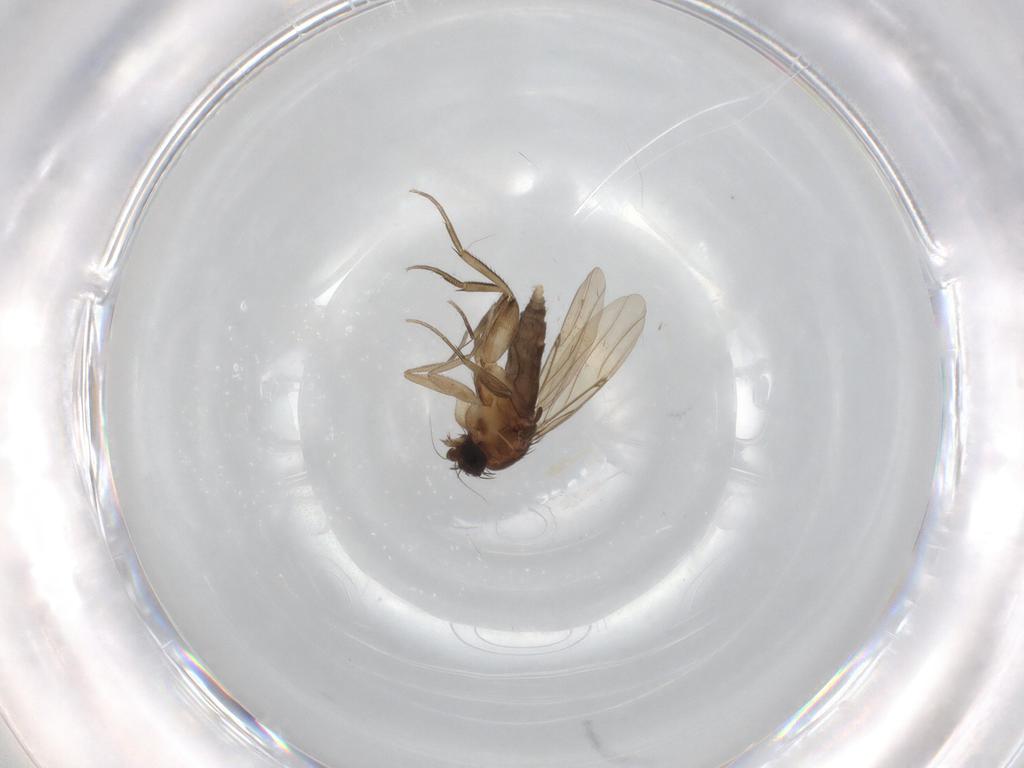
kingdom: Animalia
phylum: Arthropoda
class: Insecta
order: Diptera
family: Phoridae
